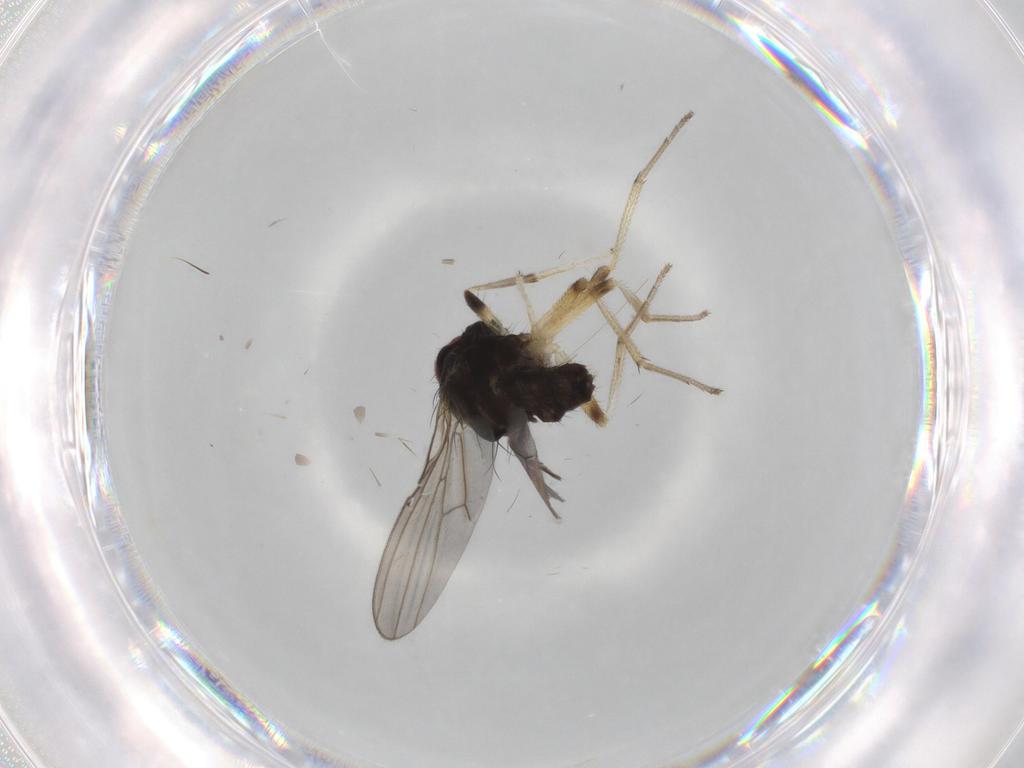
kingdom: Animalia
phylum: Arthropoda
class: Insecta
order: Diptera
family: Lauxaniidae
